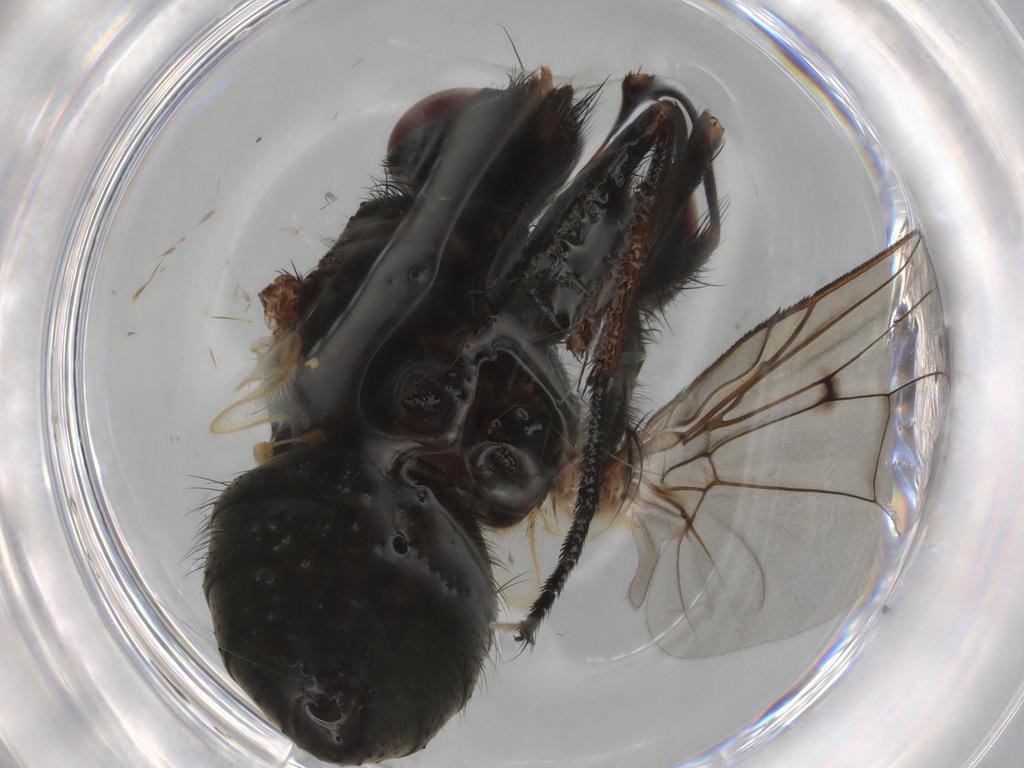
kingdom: Animalia
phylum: Arthropoda
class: Insecta
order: Diptera
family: Muscidae
